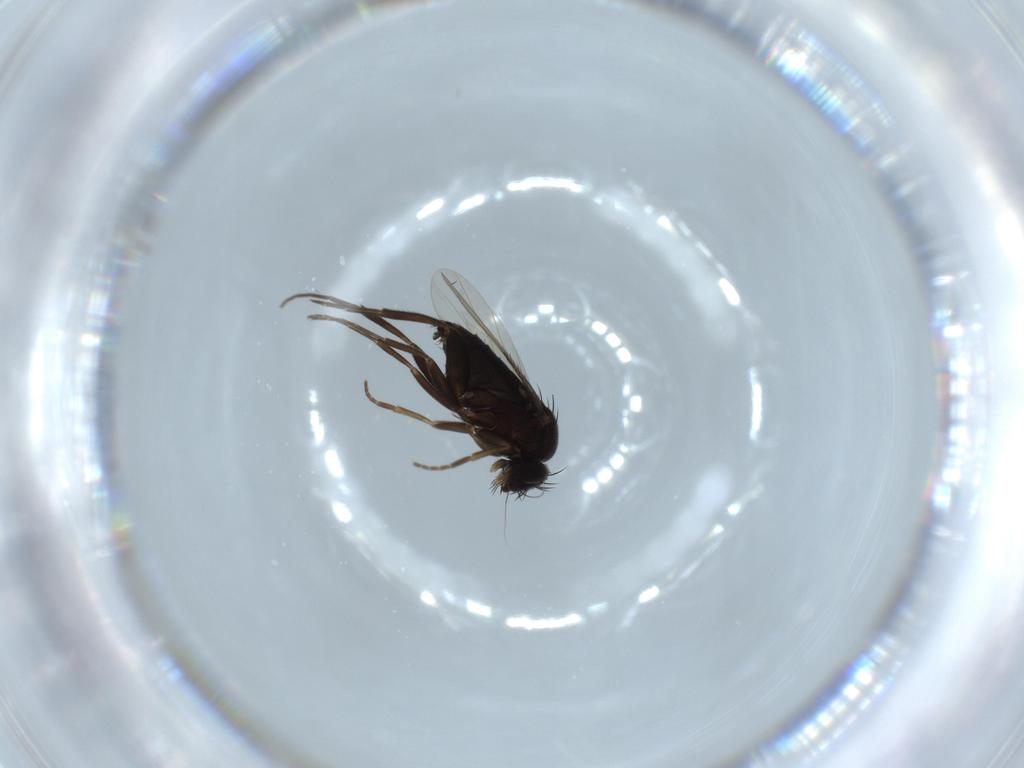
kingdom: Animalia
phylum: Arthropoda
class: Insecta
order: Diptera
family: Phoridae
